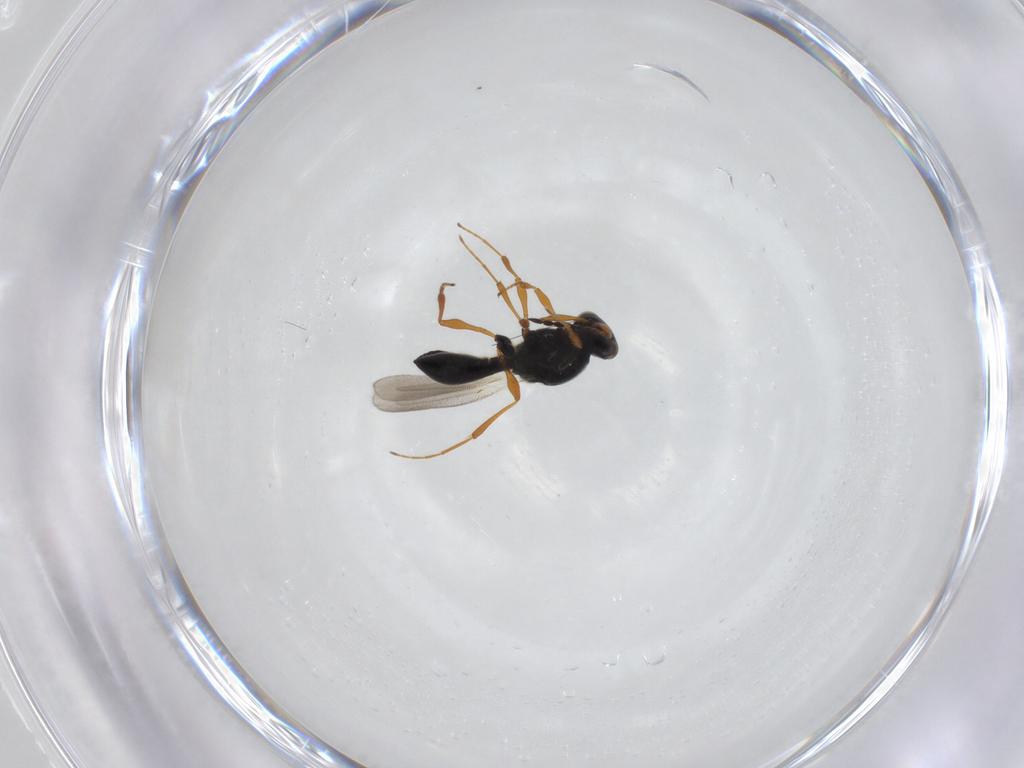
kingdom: Animalia
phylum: Arthropoda
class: Insecta
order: Hymenoptera
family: Platygastridae
